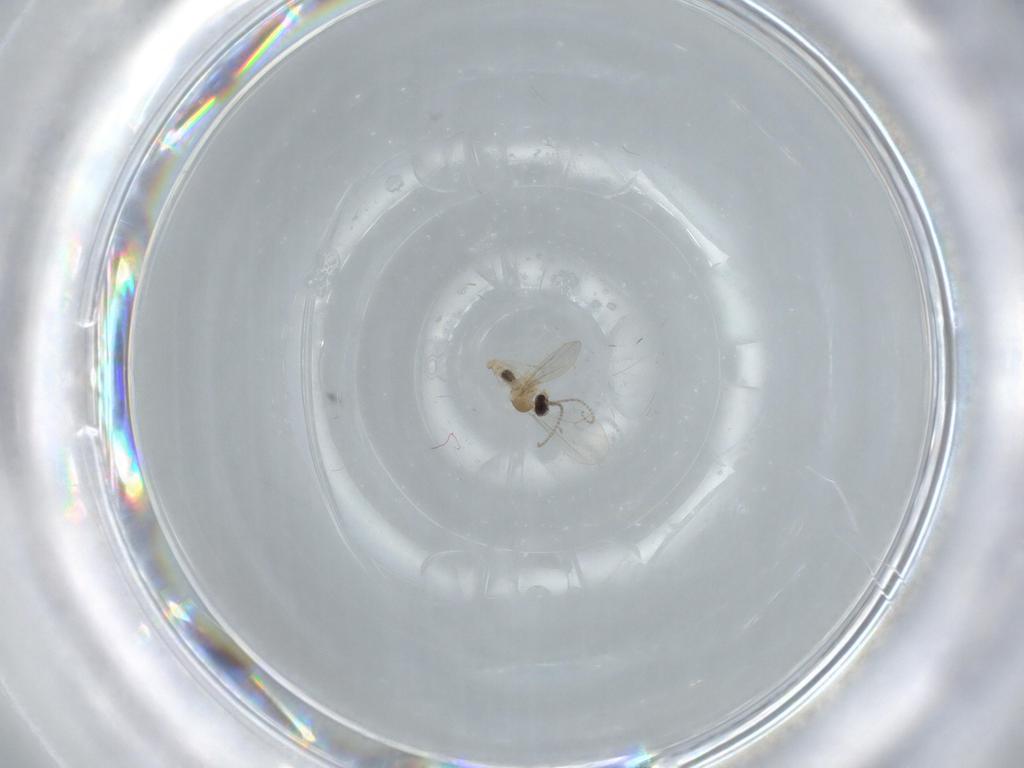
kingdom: Animalia
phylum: Arthropoda
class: Insecta
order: Diptera
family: Cecidomyiidae
